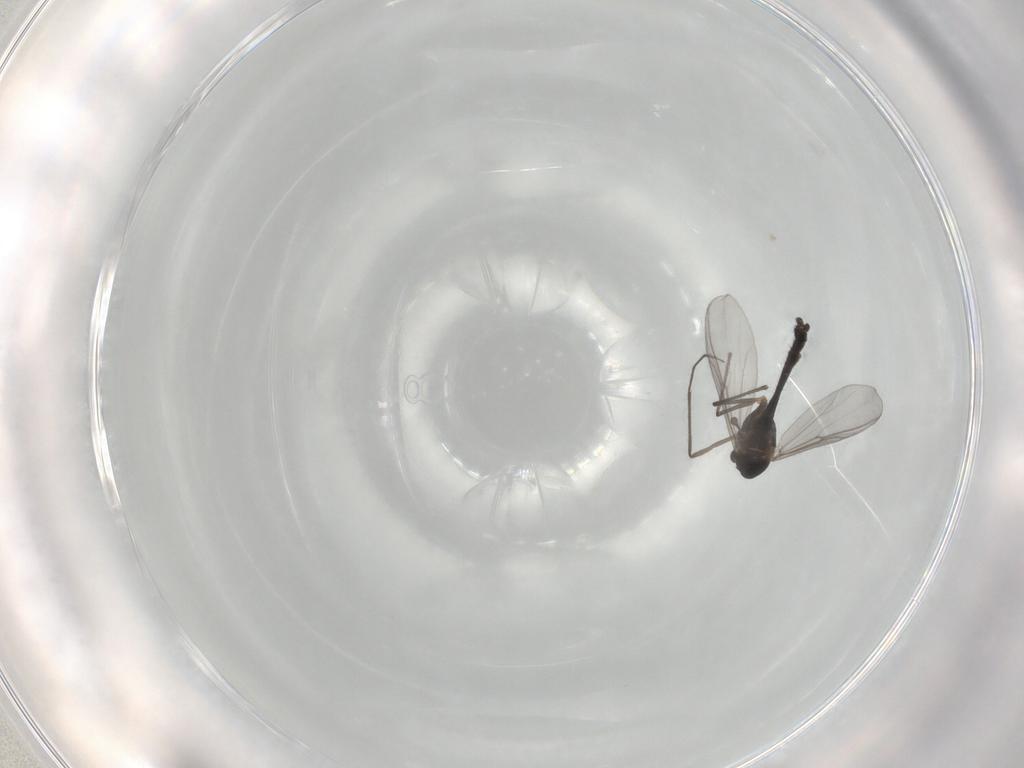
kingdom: Animalia
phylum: Arthropoda
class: Insecta
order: Diptera
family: Chironomidae
